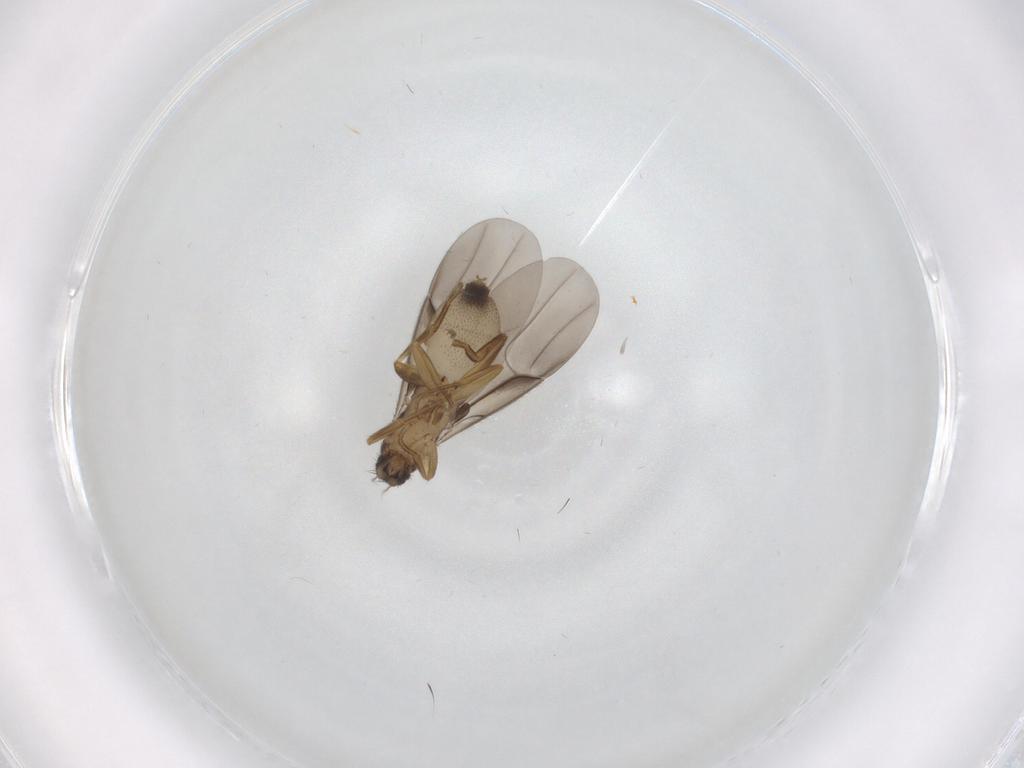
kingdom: Animalia
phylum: Arthropoda
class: Insecta
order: Diptera
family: Phoridae
